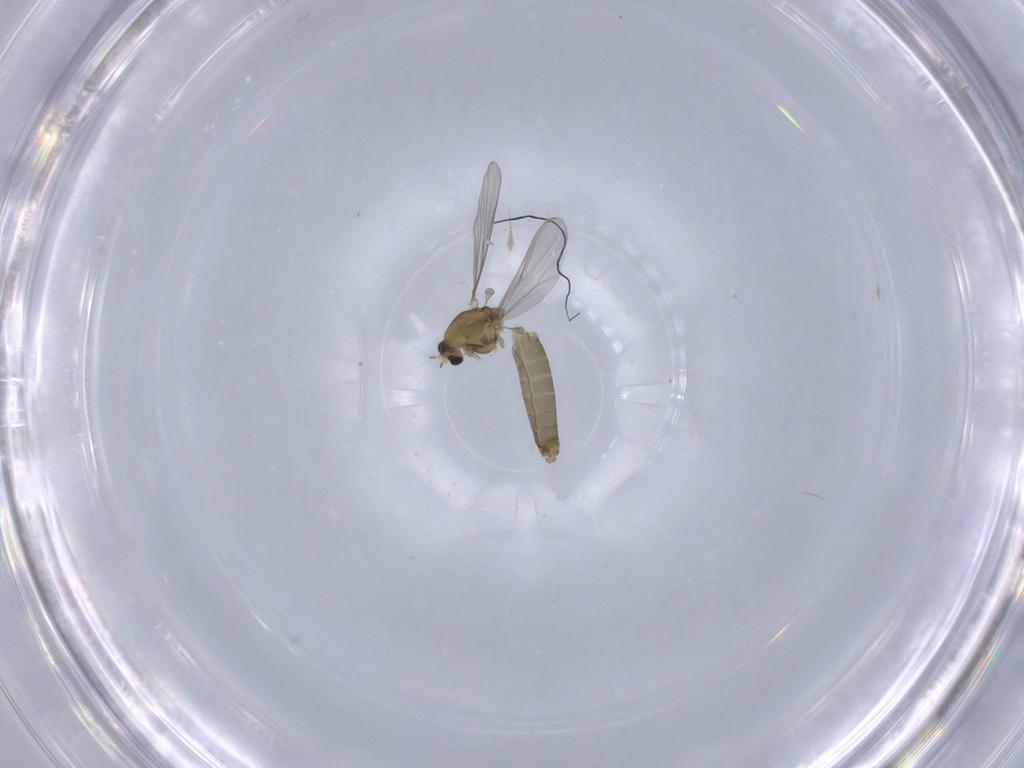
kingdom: Animalia
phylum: Arthropoda
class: Insecta
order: Diptera
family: Chironomidae
